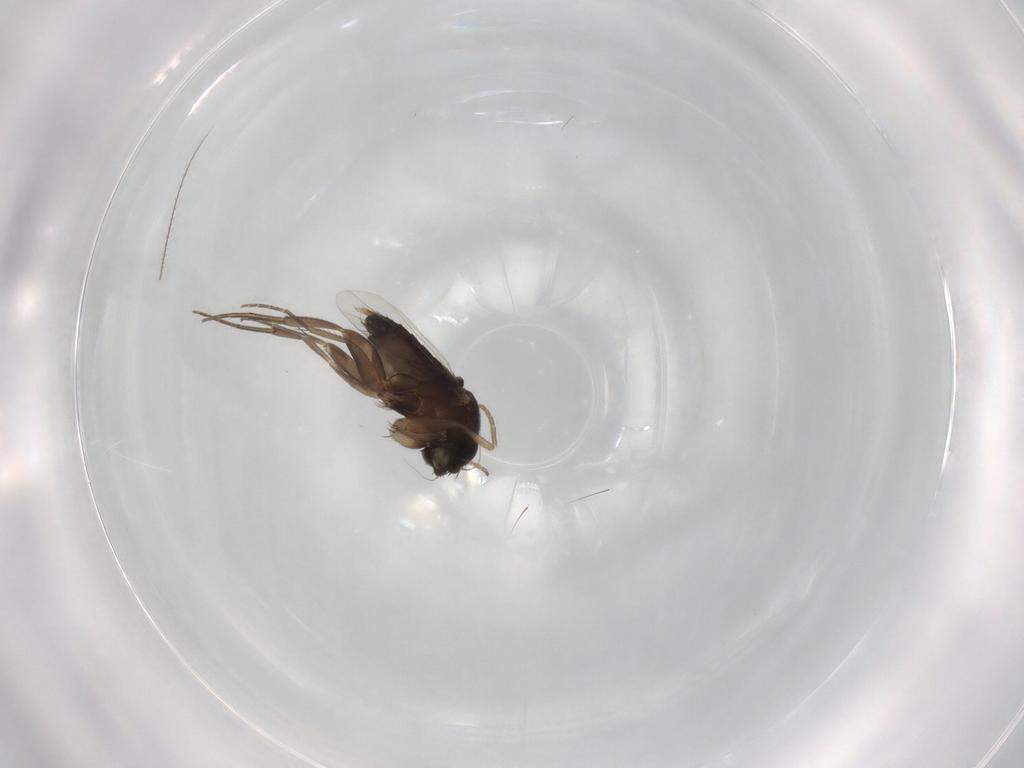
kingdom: Animalia
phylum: Arthropoda
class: Insecta
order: Diptera
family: Phoridae
